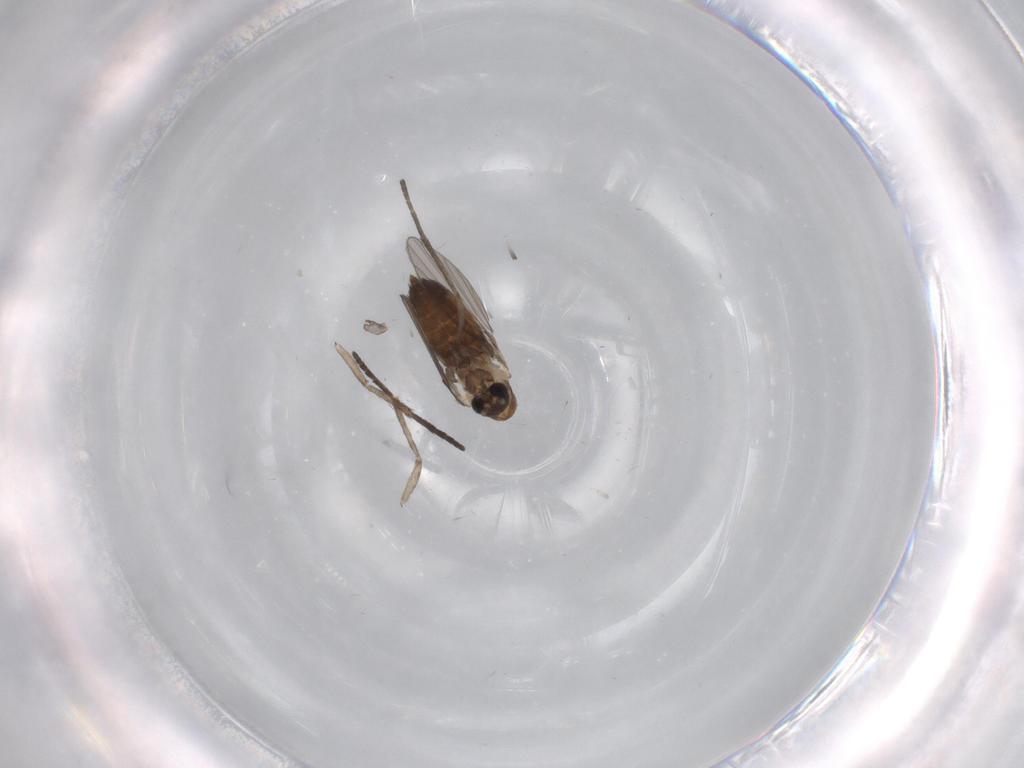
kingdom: Animalia
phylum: Arthropoda
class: Insecta
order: Diptera
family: Psychodidae
